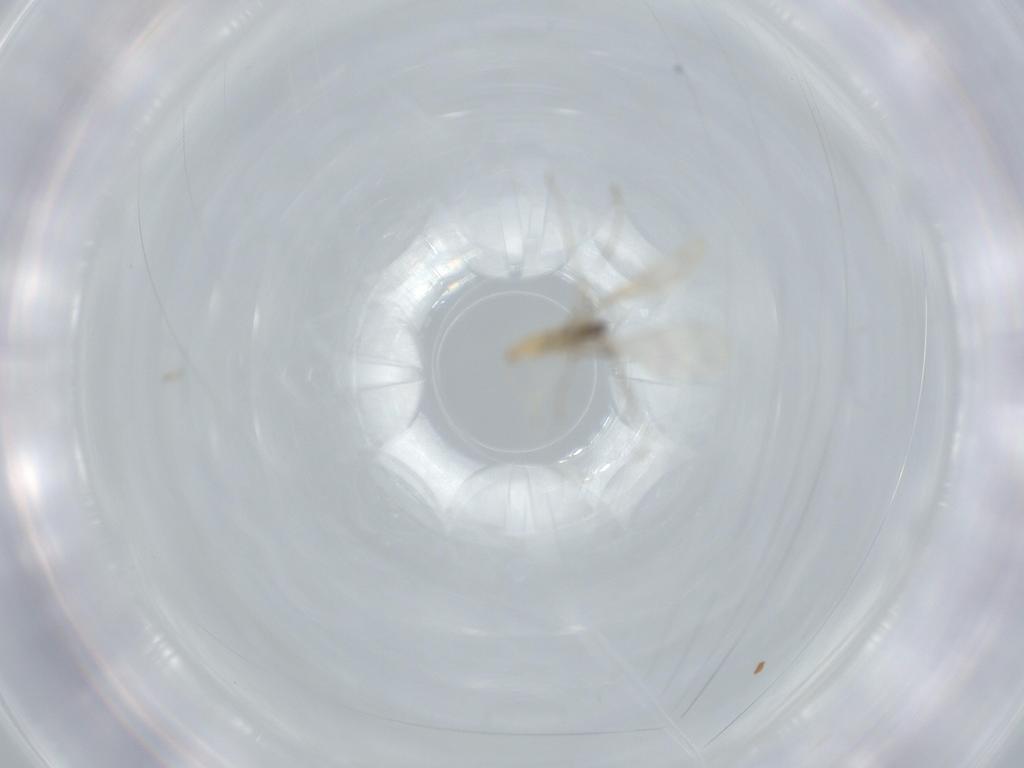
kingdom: Animalia
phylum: Arthropoda
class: Insecta
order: Diptera
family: Cecidomyiidae
